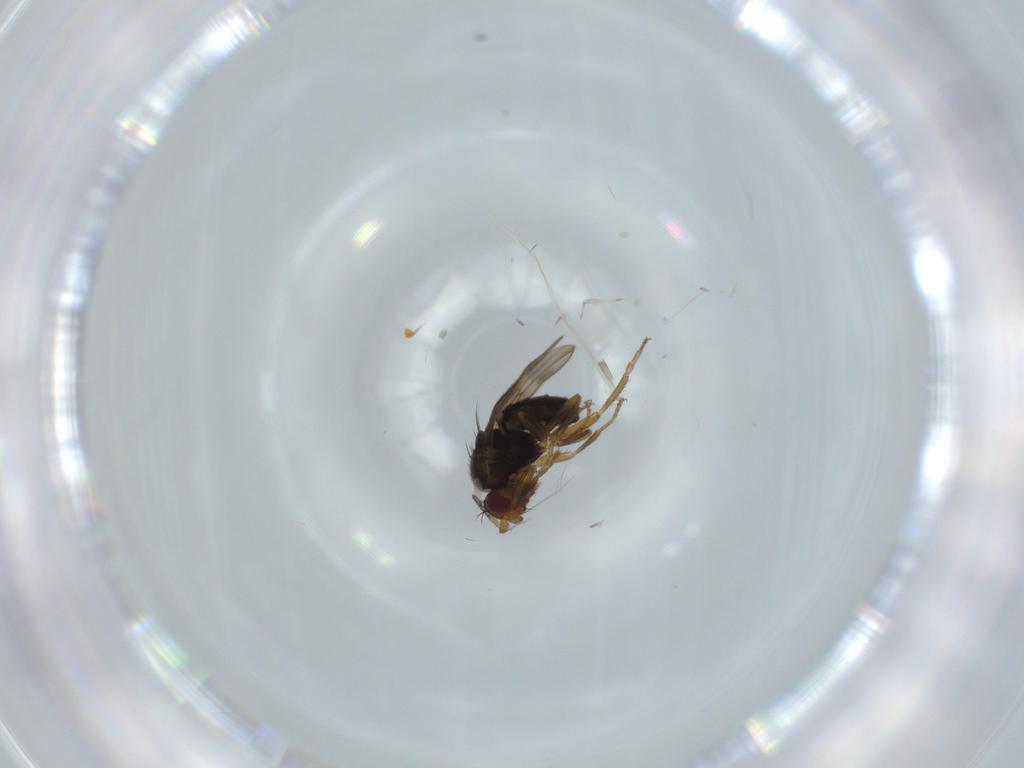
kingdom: Animalia
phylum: Arthropoda
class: Insecta
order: Diptera
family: Sphaeroceridae
